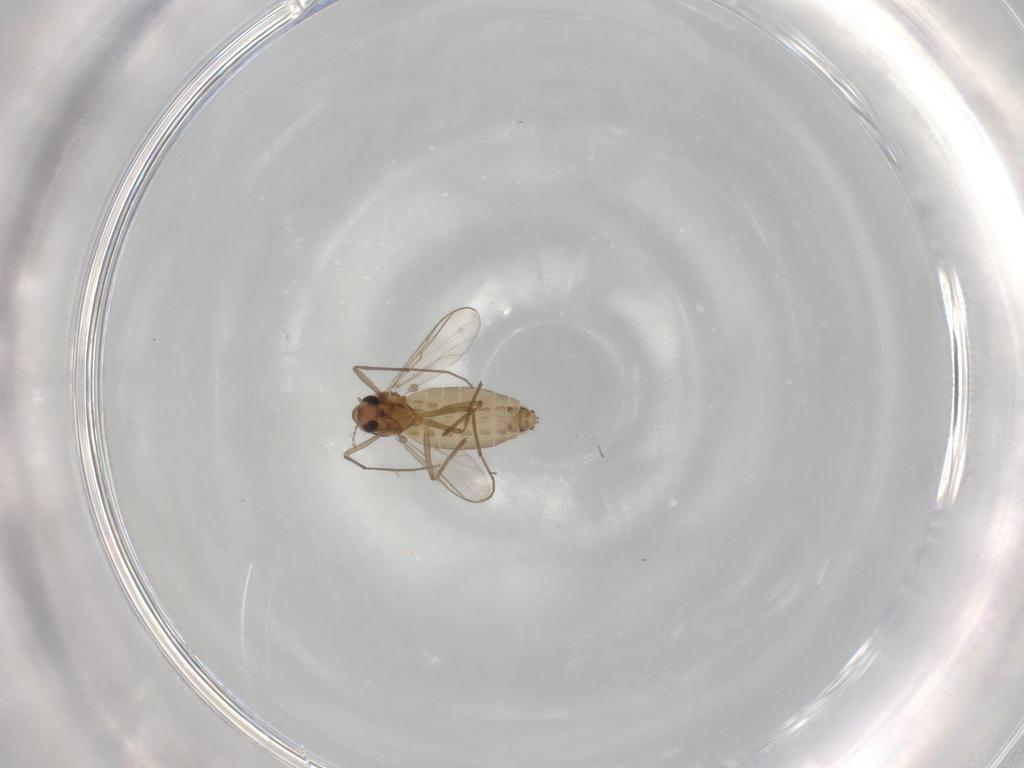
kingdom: Animalia
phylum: Arthropoda
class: Insecta
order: Diptera
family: Chironomidae
